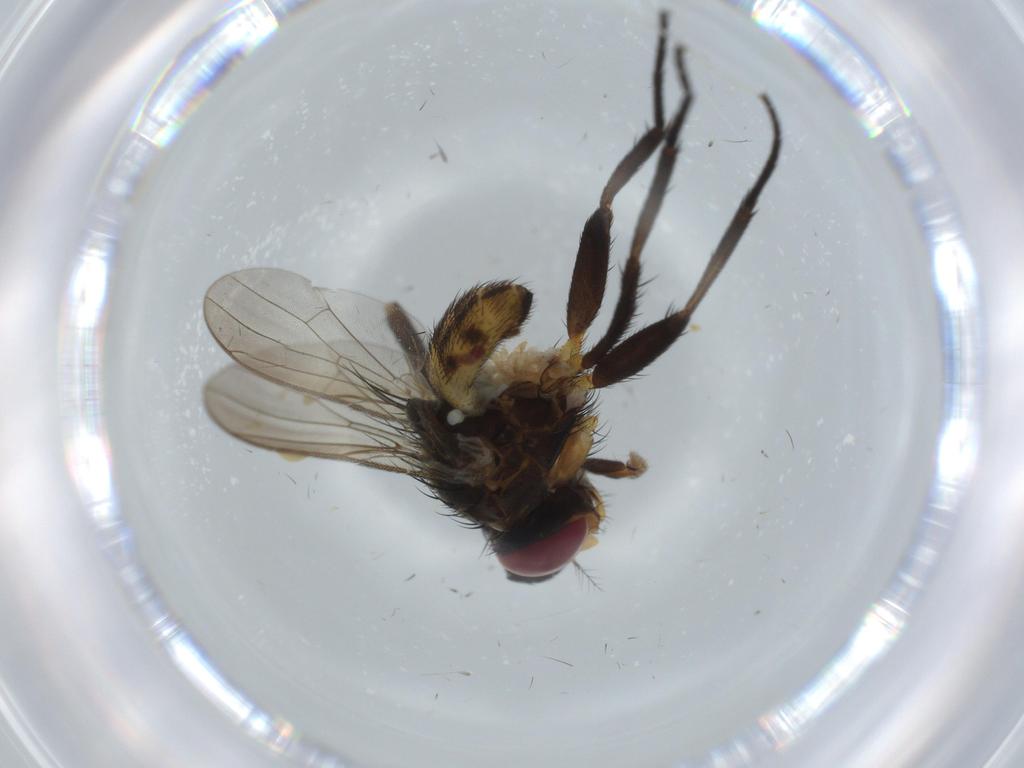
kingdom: Animalia
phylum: Arthropoda
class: Insecta
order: Diptera
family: Anthomyiidae
